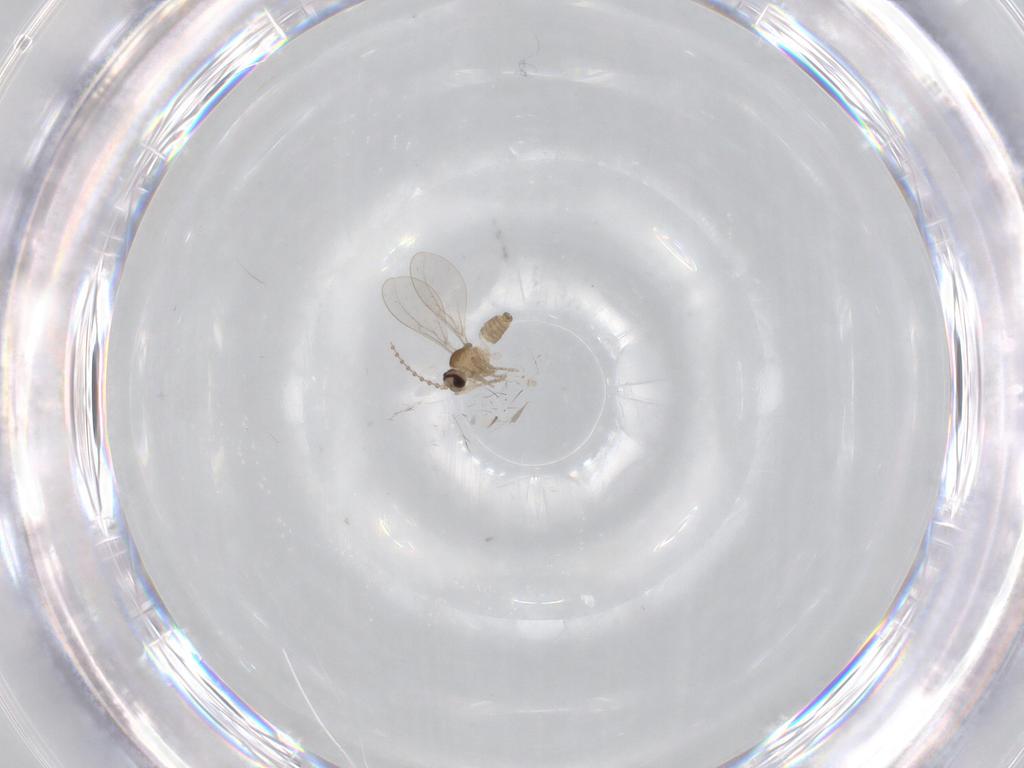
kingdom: Animalia
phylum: Arthropoda
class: Insecta
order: Diptera
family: Cecidomyiidae
